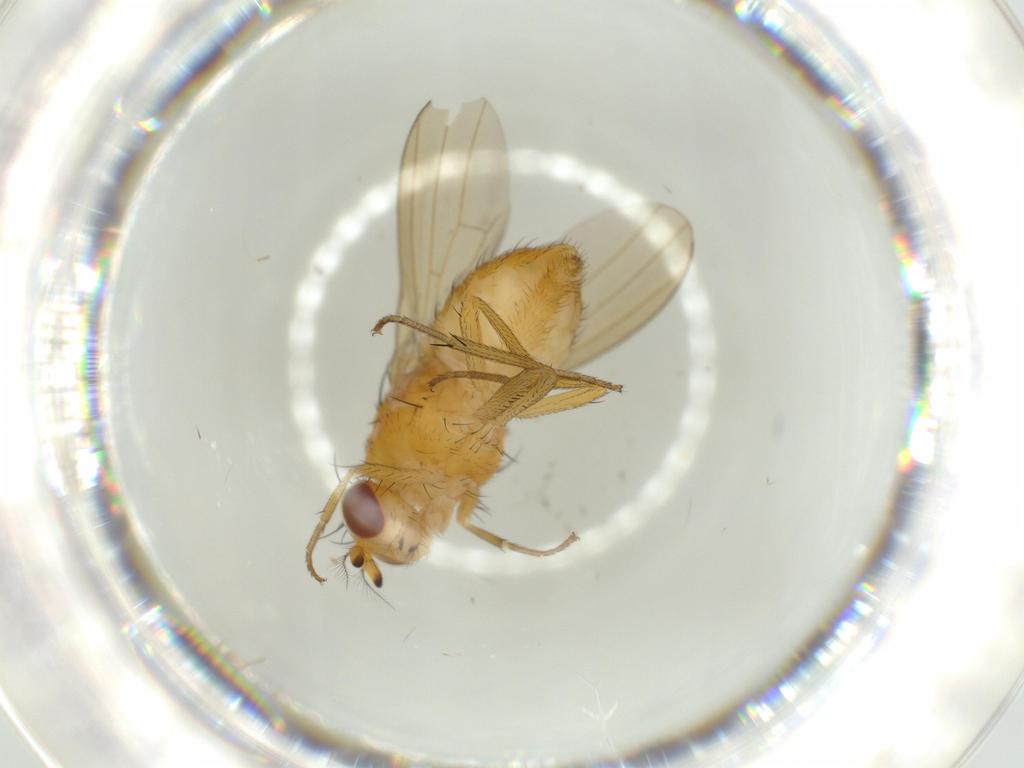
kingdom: Animalia
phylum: Arthropoda
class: Insecta
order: Diptera
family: Lauxaniidae
